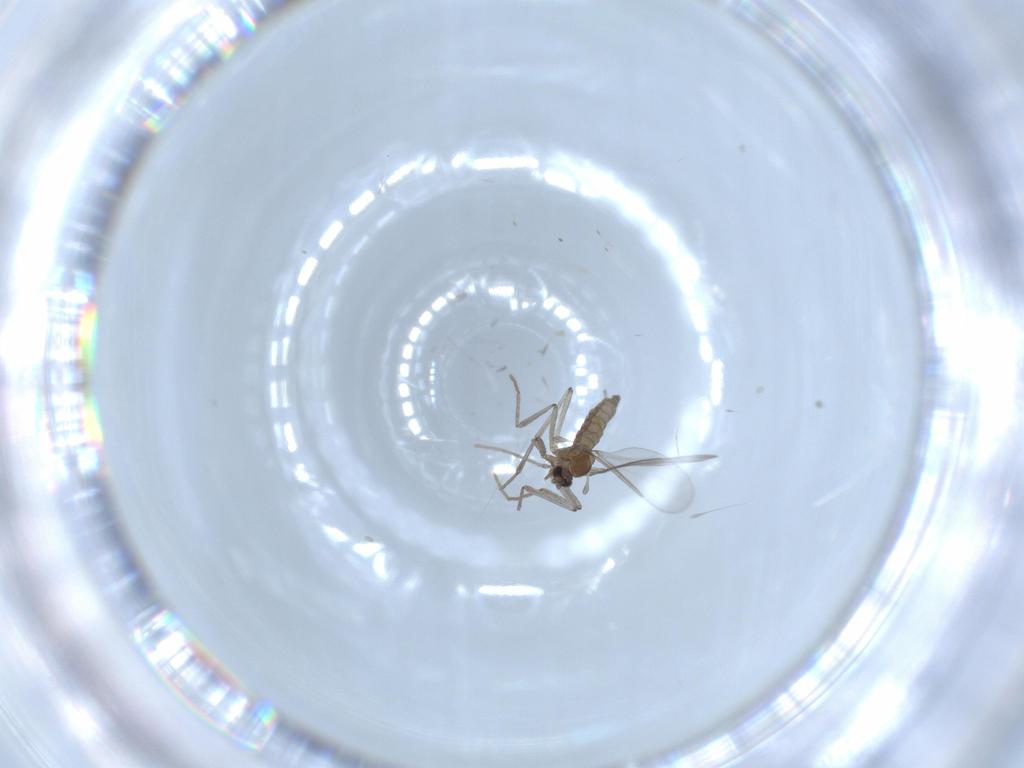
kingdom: Animalia
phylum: Arthropoda
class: Insecta
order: Diptera
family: Cecidomyiidae
